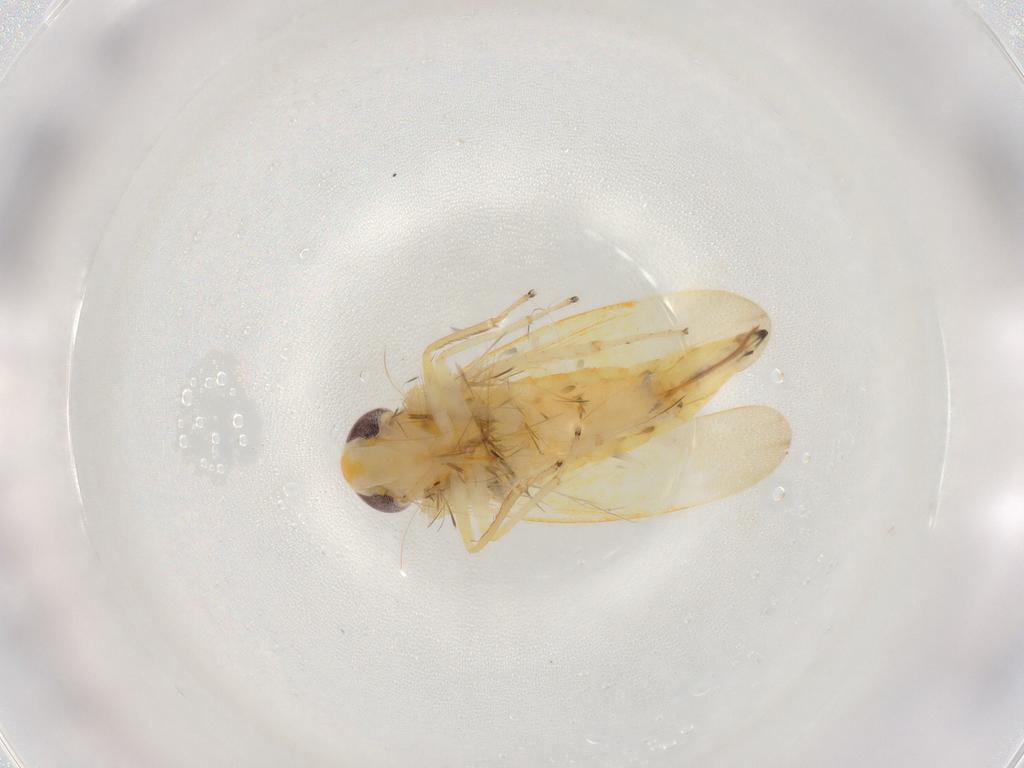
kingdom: Animalia
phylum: Arthropoda
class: Insecta
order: Hemiptera
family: Cicadellidae
